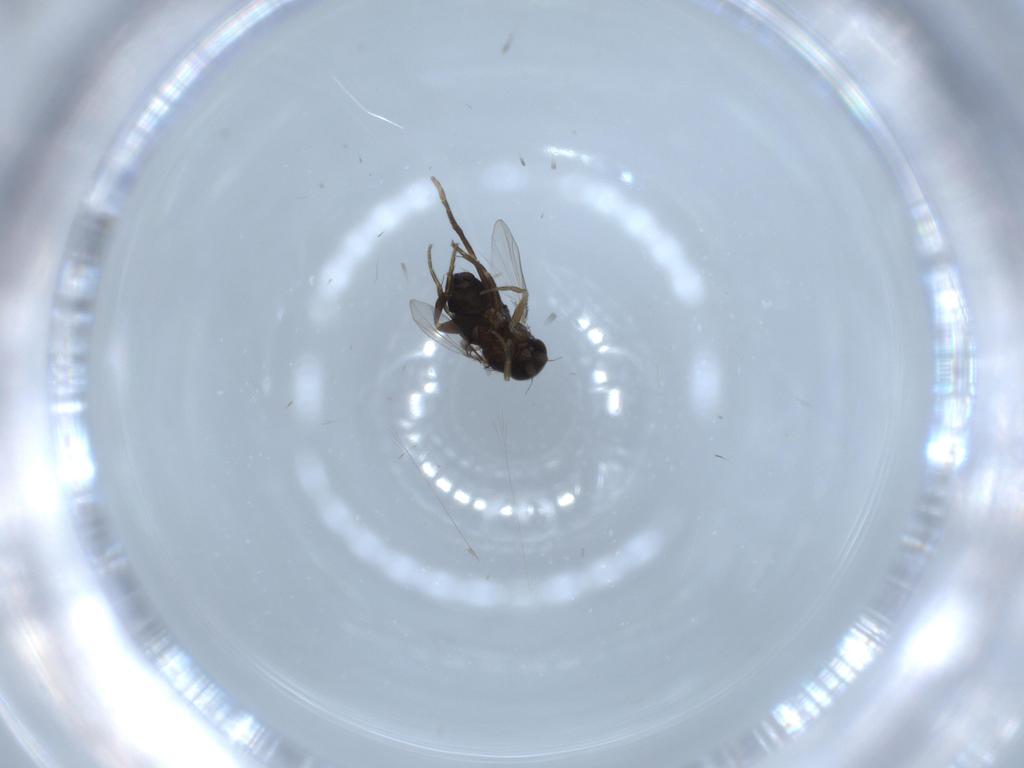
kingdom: Animalia
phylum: Arthropoda
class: Insecta
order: Diptera
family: Phoridae
